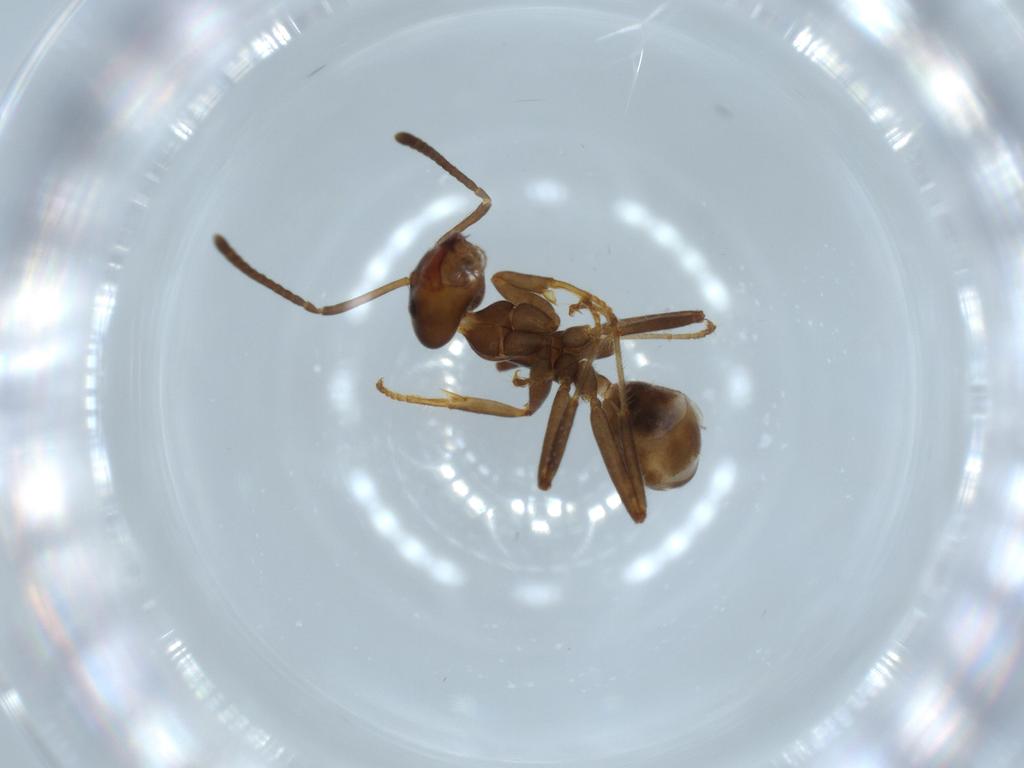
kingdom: Animalia
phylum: Arthropoda
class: Insecta
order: Hymenoptera
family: Formicidae
